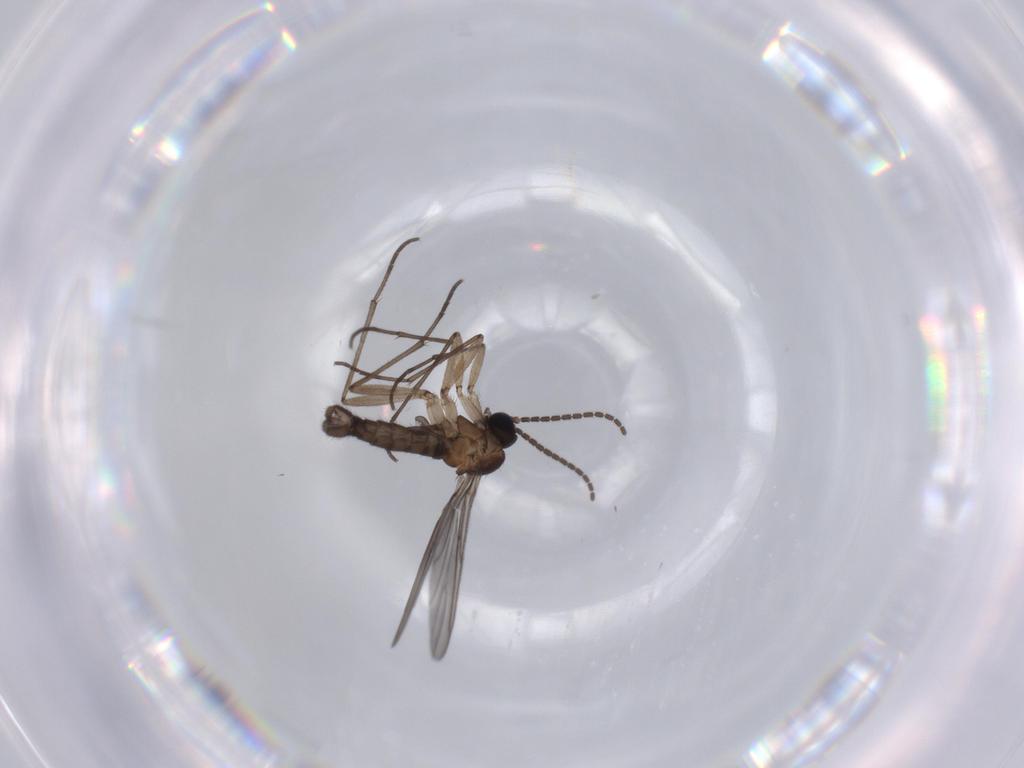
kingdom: Animalia
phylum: Arthropoda
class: Insecta
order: Diptera
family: Sciaridae
